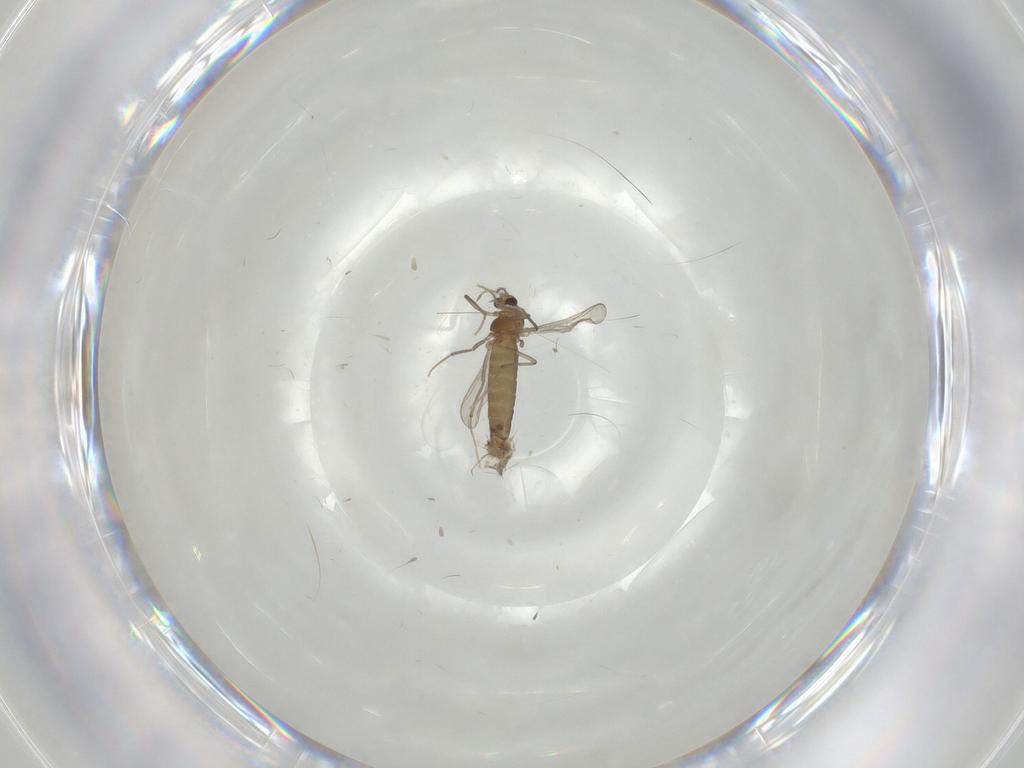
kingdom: Animalia
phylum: Arthropoda
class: Insecta
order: Diptera
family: Chironomidae
